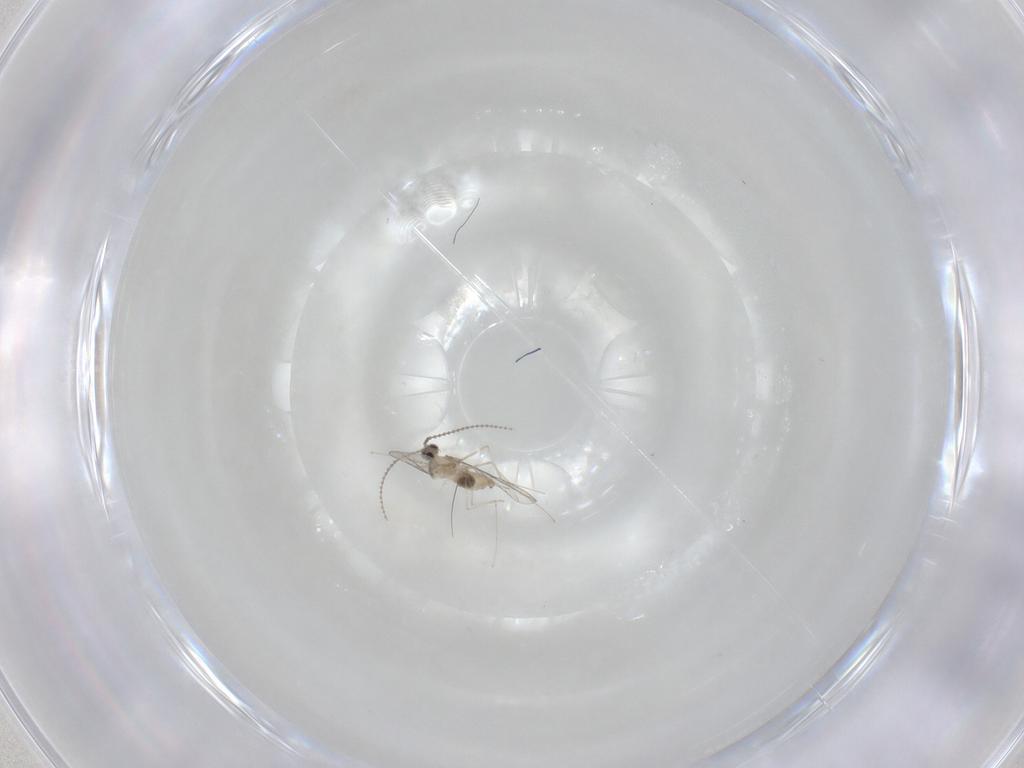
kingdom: Animalia
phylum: Arthropoda
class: Insecta
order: Diptera
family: Cecidomyiidae
